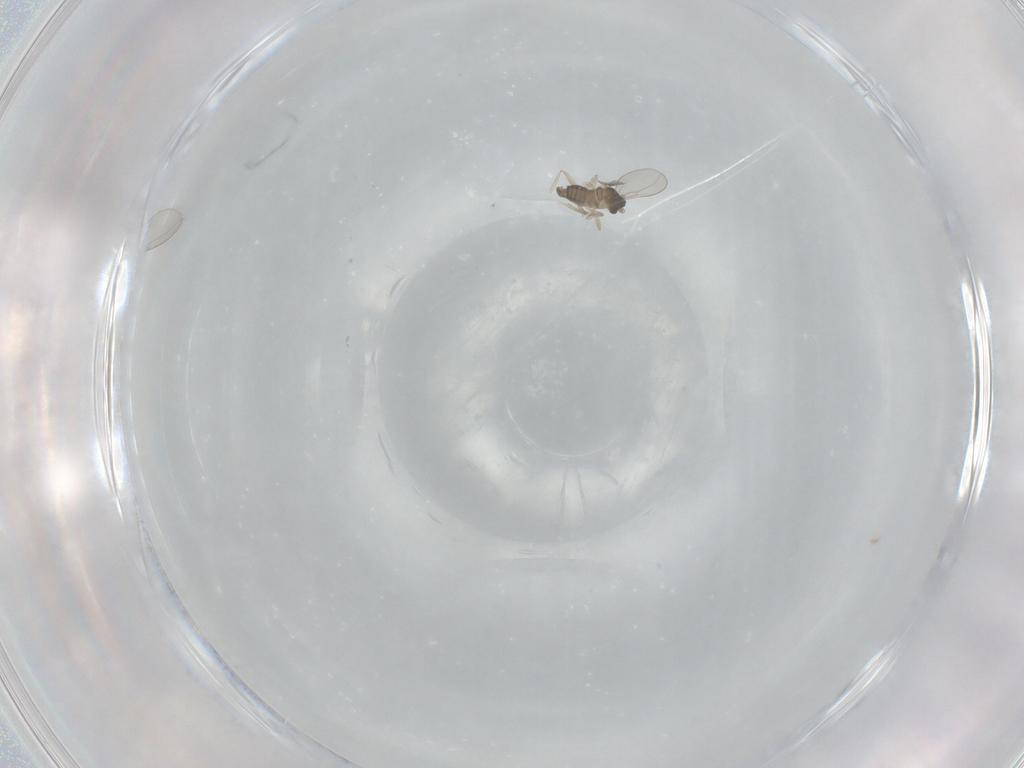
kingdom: Animalia
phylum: Arthropoda
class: Insecta
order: Diptera
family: Cecidomyiidae
